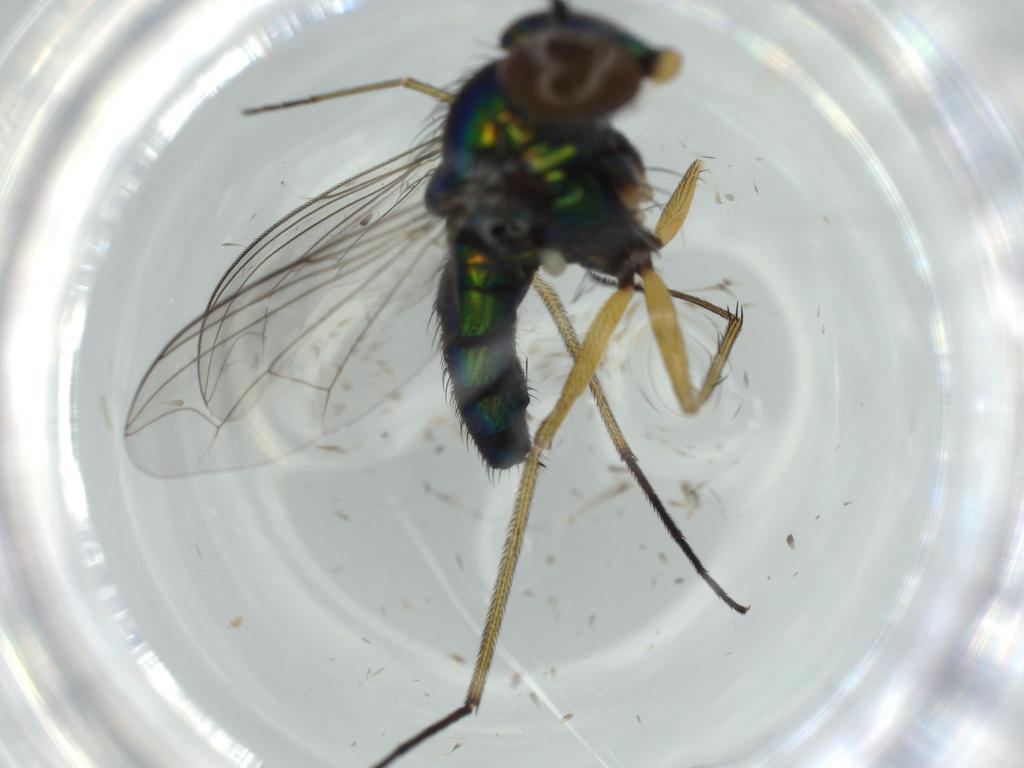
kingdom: Animalia
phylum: Arthropoda
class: Insecta
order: Diptera
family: Dolichopodidae
